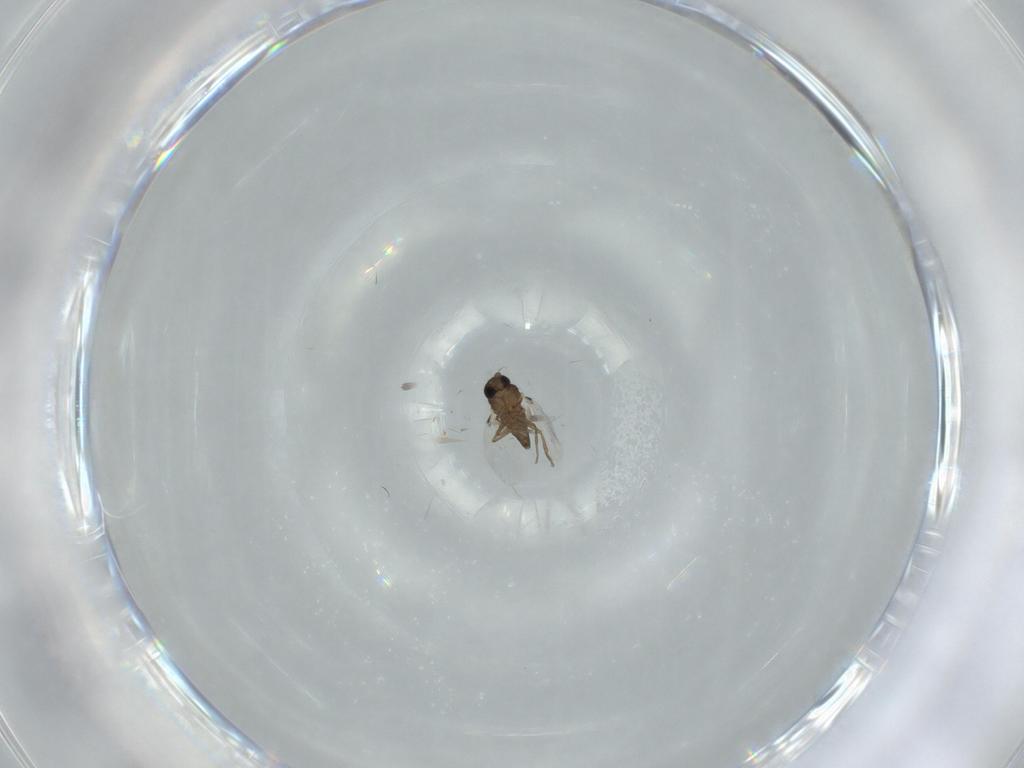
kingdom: Animalia
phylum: Arthropoda
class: Insecta
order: Diptera
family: Phoridae
